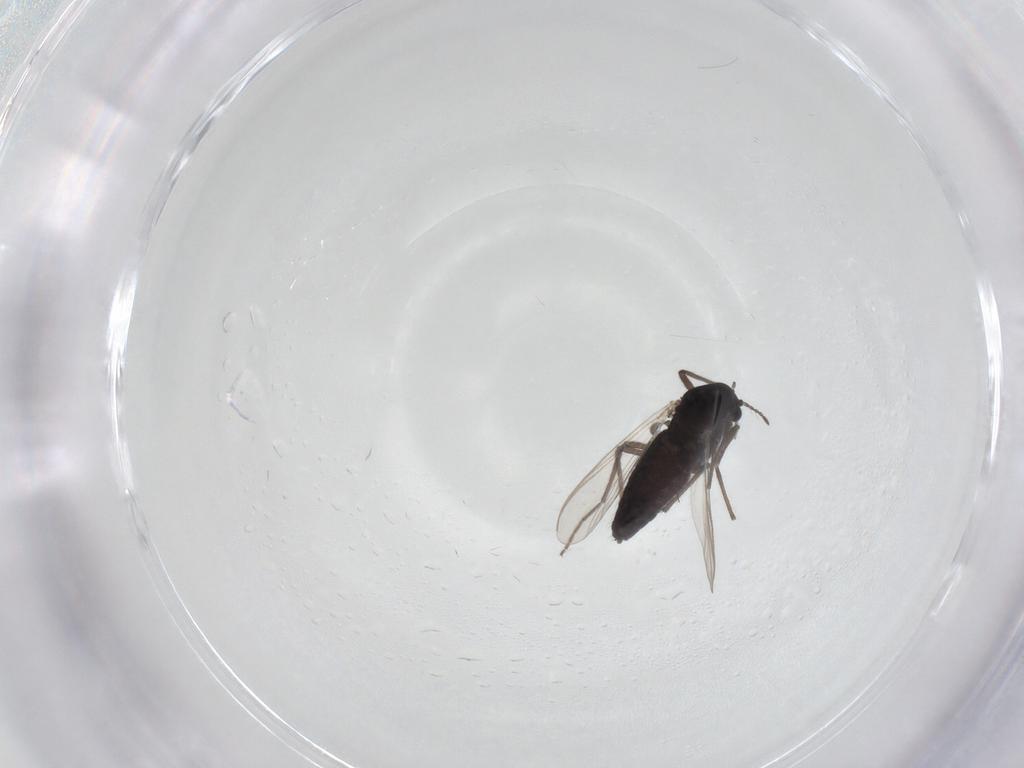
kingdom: Animalia
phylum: Arthropoda
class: Insecta
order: Diptera
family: Chironomidae
